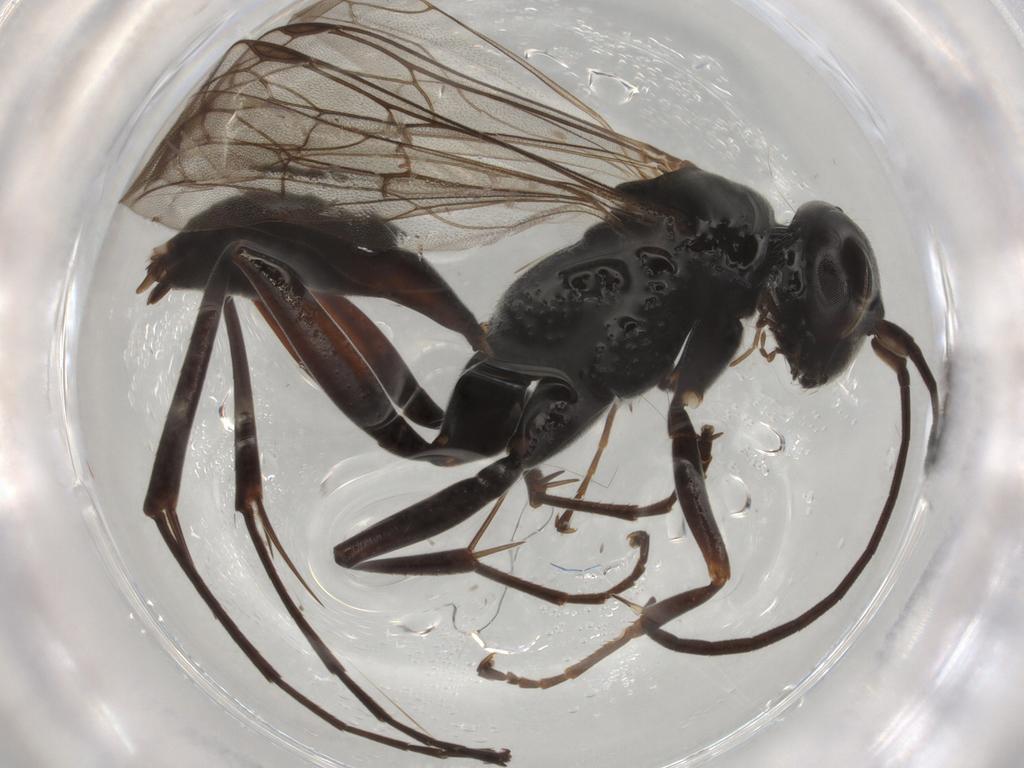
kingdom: Animalia
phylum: Arthropoda
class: Insecta
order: Hymenoptera
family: Pompilidae
